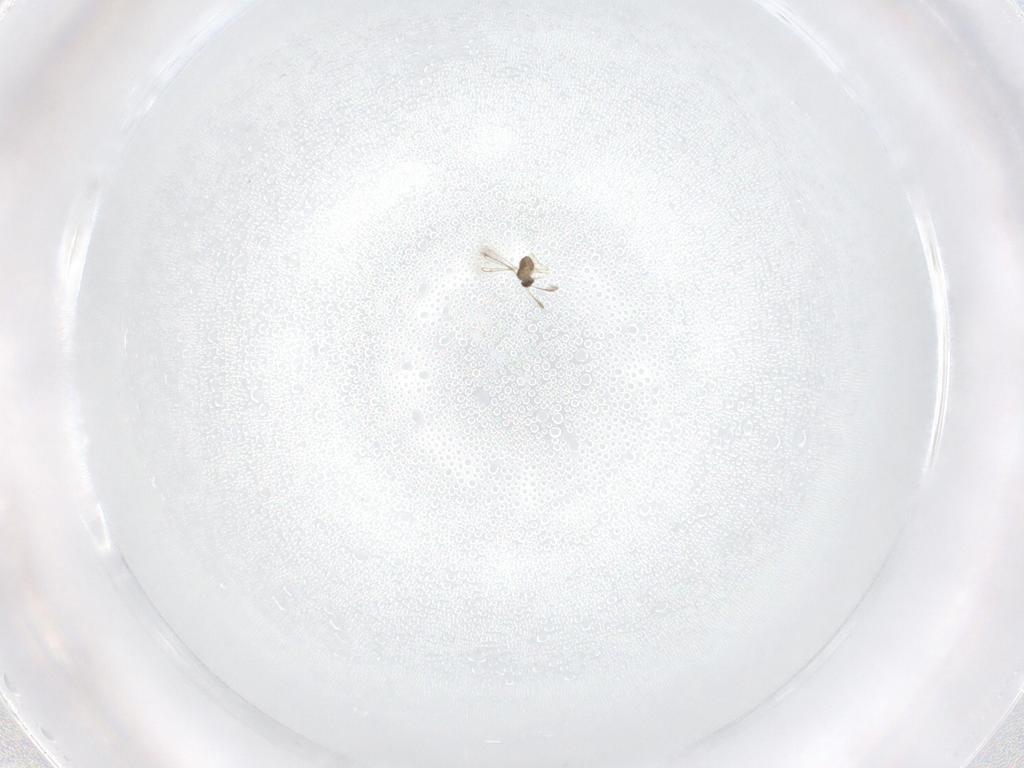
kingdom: Animalia
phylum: Arthropoda
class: Insecta
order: Hymenoptera
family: Mymaridae
